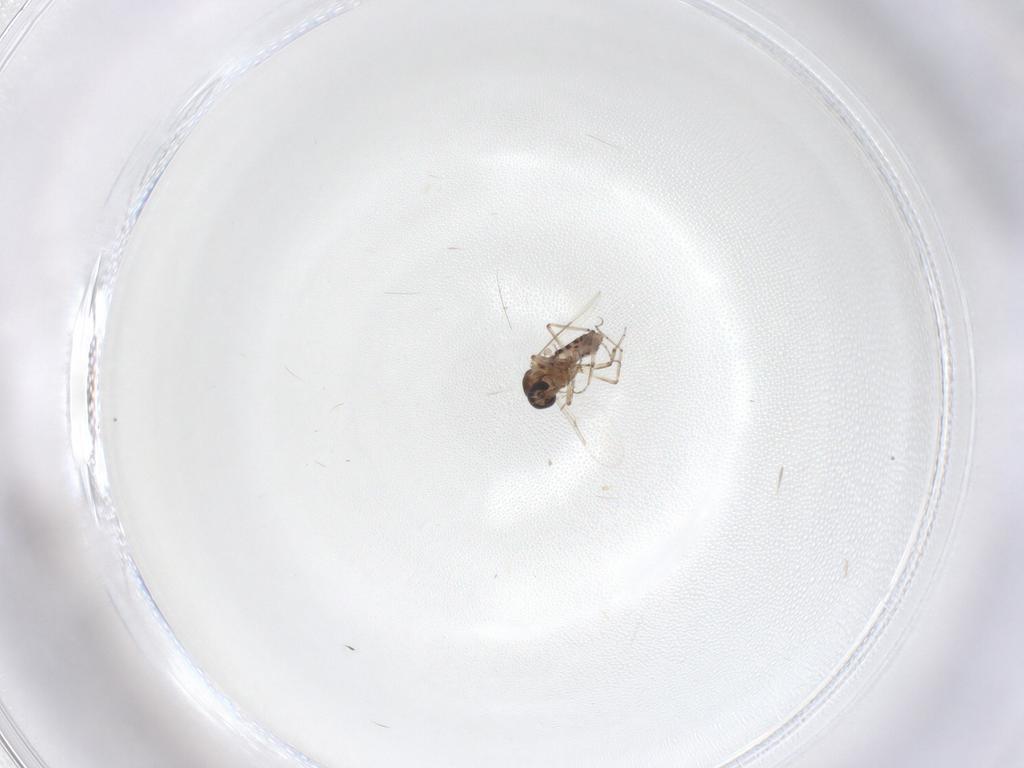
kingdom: Animalia
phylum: Arthropoda
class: Insecta
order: Diptera
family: Ceratopogonidae
